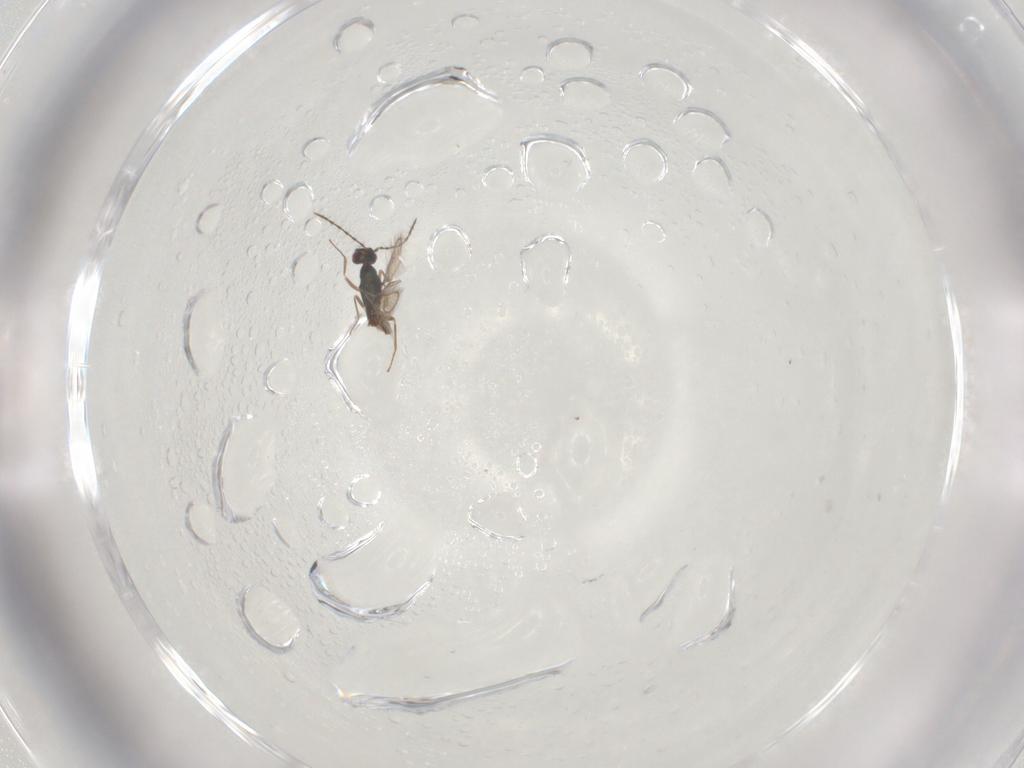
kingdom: Animalia
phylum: Arthropoda
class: Insecta
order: Hymenoptera
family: Pteromalidae
